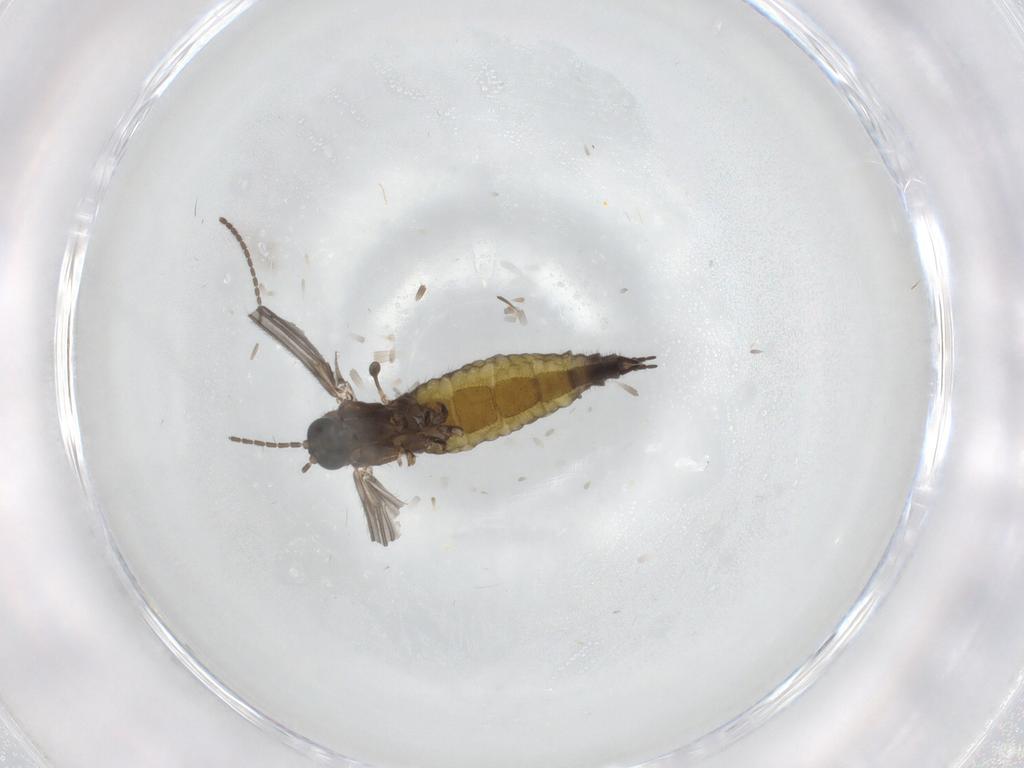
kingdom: Animalia
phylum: Arthropoda
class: Insecta
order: Diptera
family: Sciaridae
